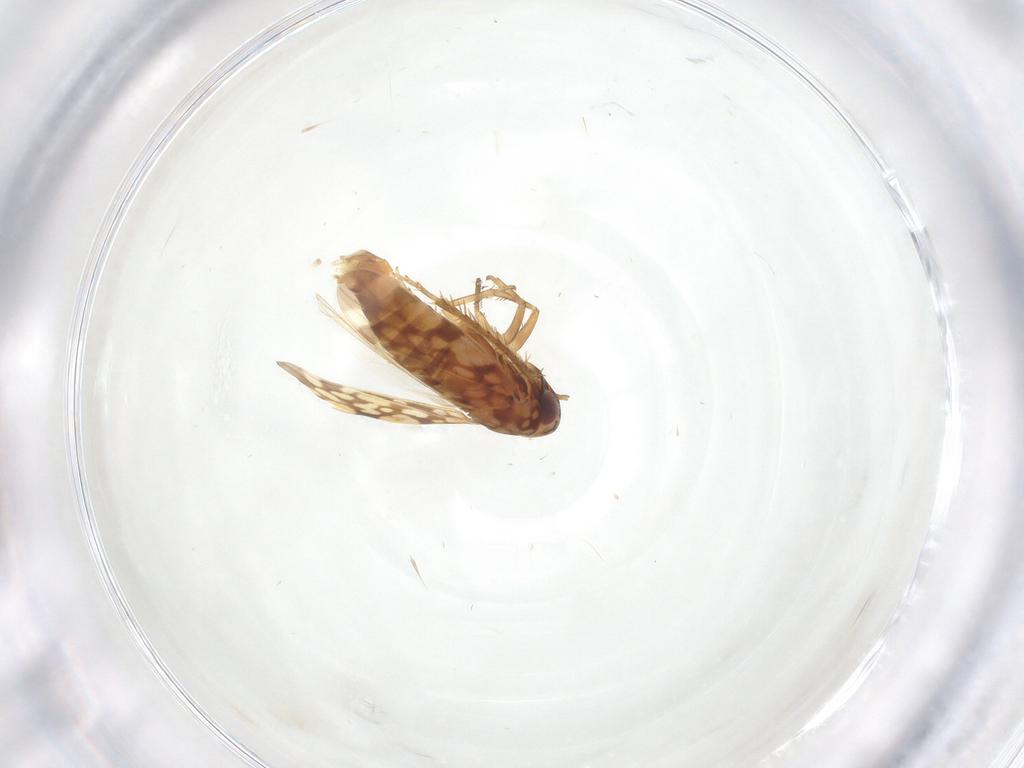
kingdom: Animalia
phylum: Arthropoda
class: Insecta
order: Hemiptera
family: Cicadellidae
